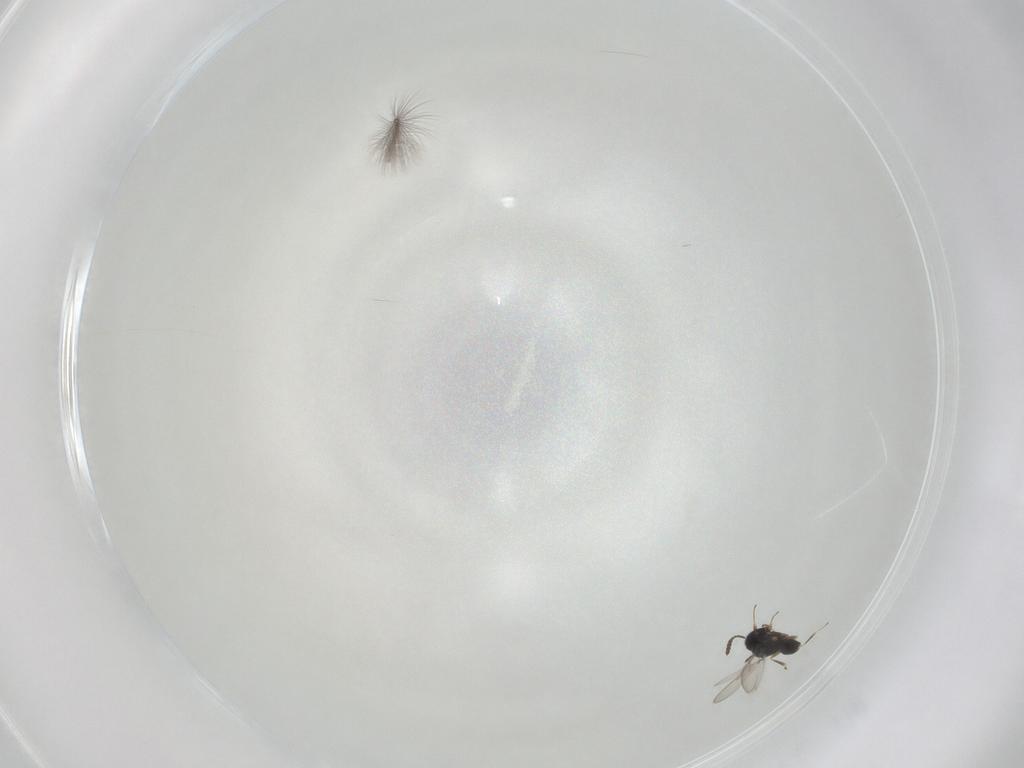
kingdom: Animalia
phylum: Arthropoda
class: Insecta
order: Hymenoptera
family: Scelionidae
